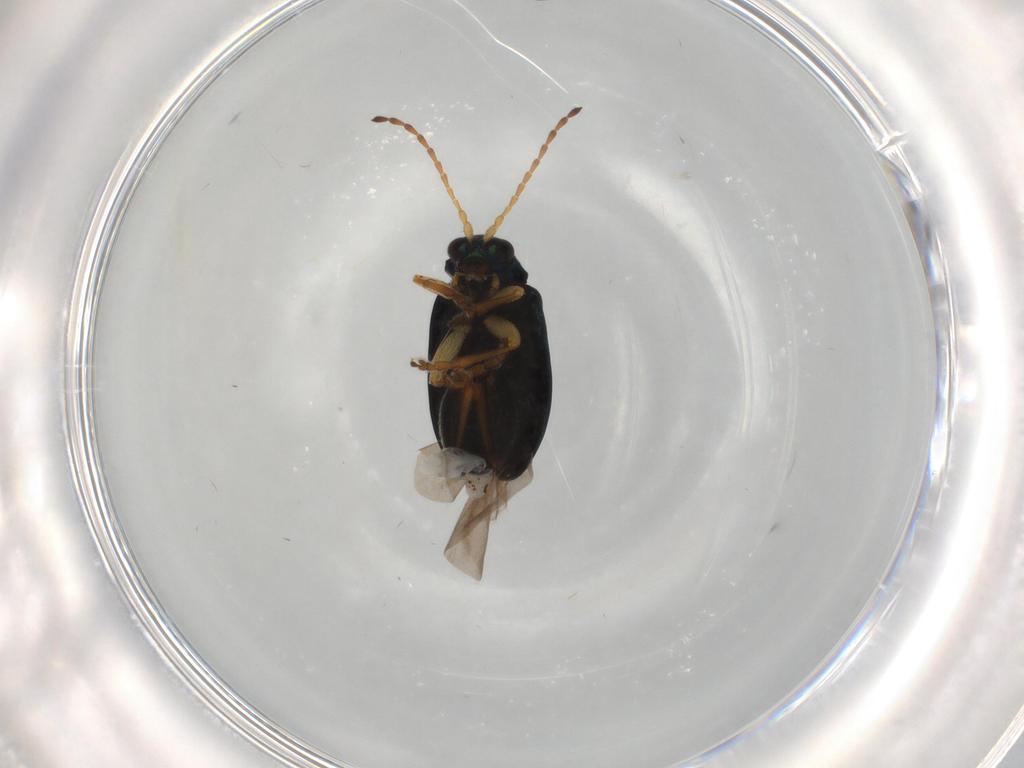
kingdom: Animalia
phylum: Arthropoda
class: Insecta
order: Coleoptera
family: Chrysomelidae
